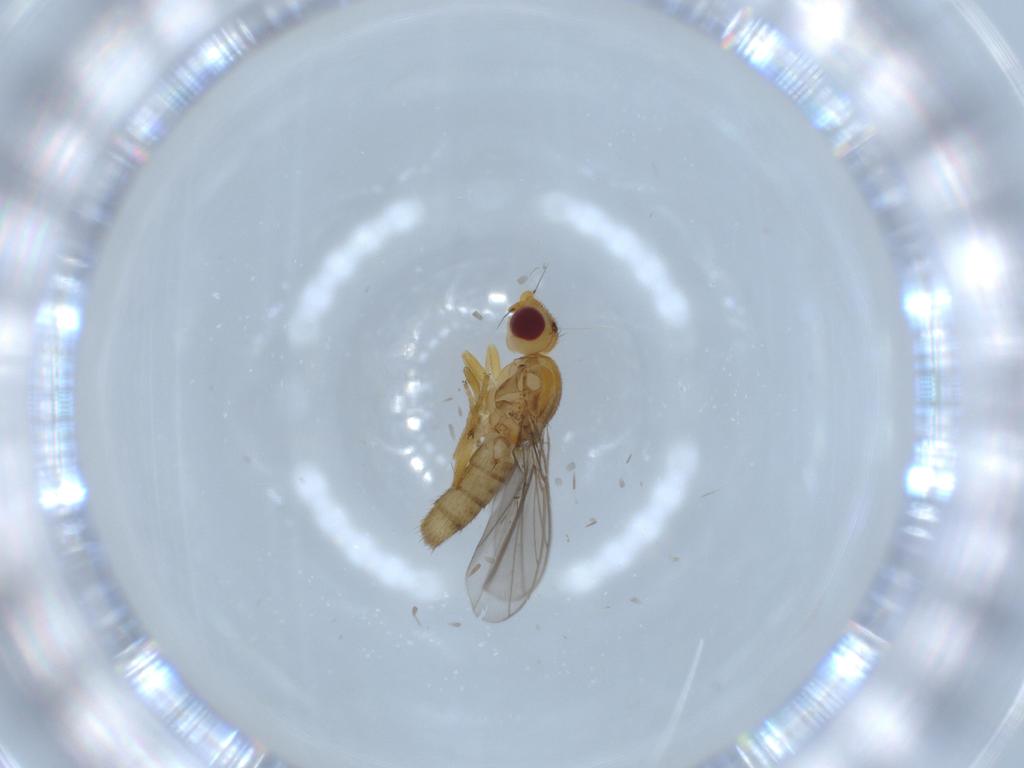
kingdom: Animalia
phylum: Arthropoda
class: Insecta
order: Diptera
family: Chloropidae
